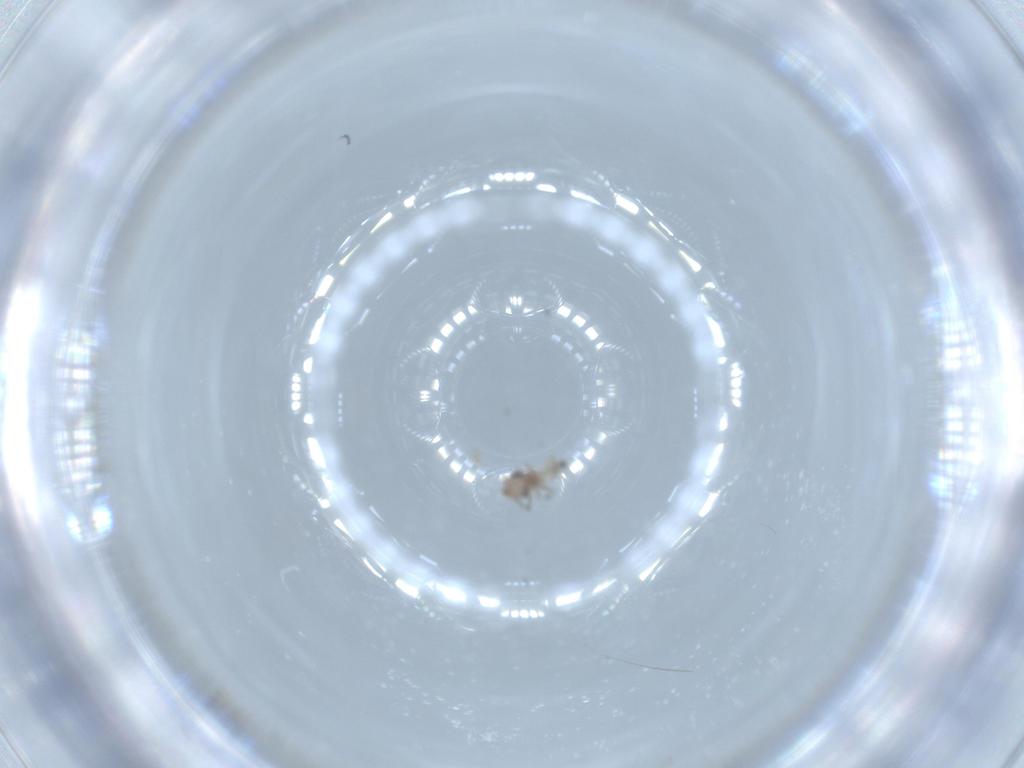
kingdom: Animalia
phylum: Arthropoda
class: Insecta
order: Psocodea
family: Lepidopsocidae
